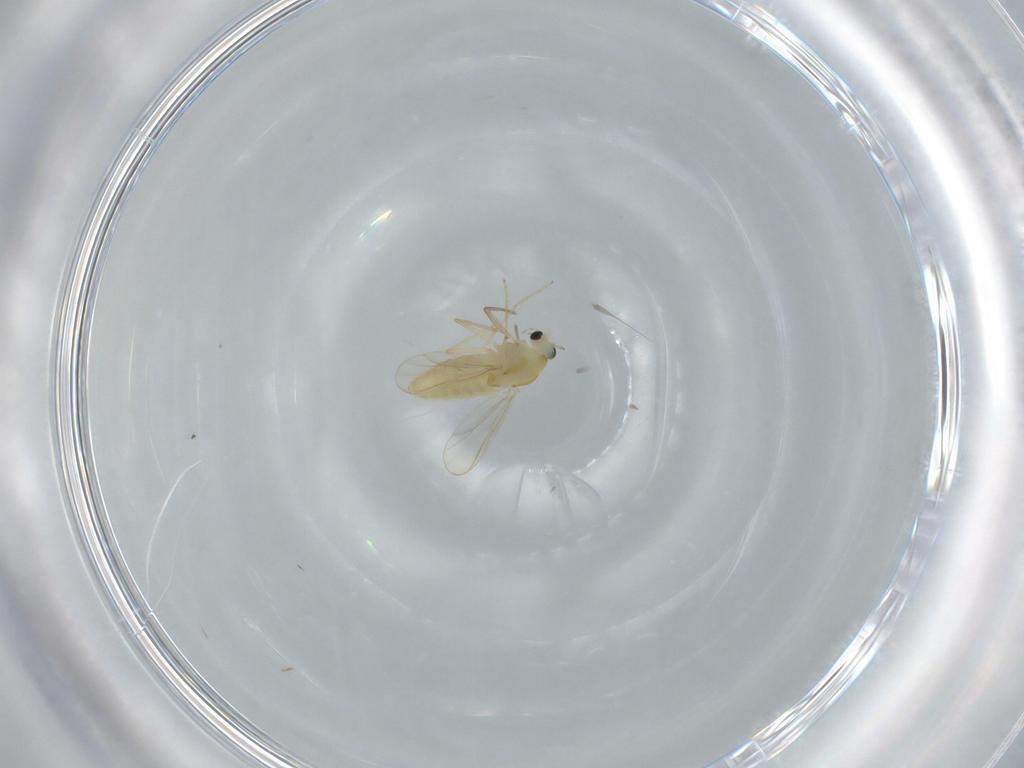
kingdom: Animalia
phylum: Arthropoda
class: Insecta
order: Diptera
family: Chironomidae
